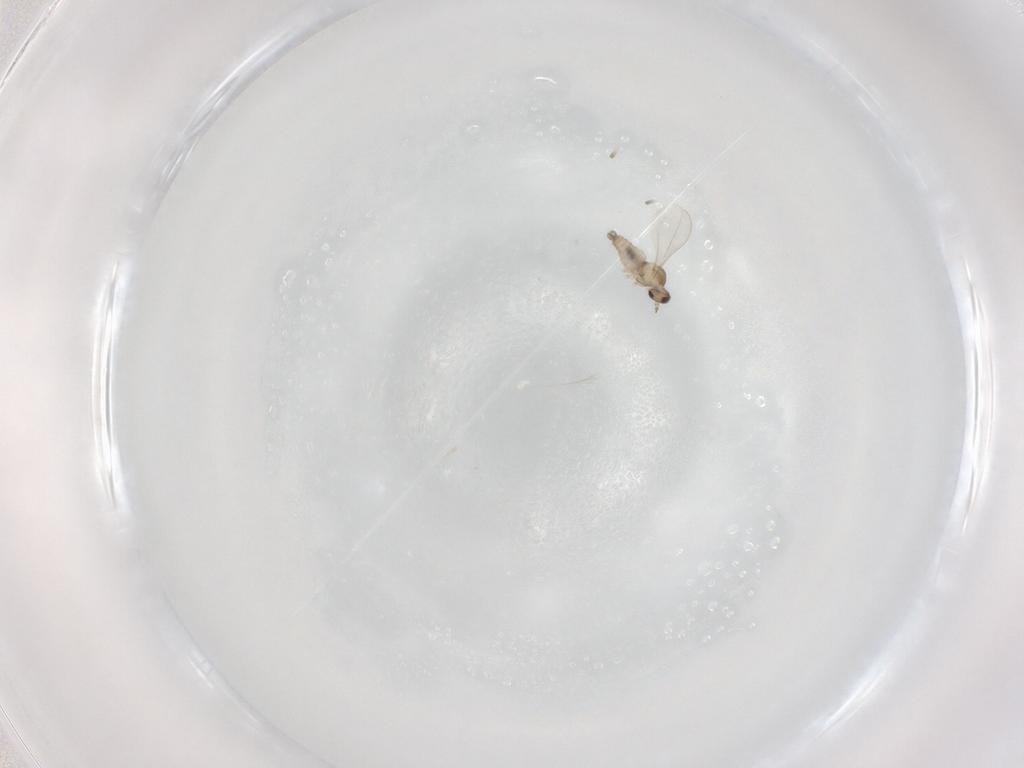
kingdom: Animalia
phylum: Arthropoda
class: Insecta
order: Diptera
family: Cecidomyiidae
